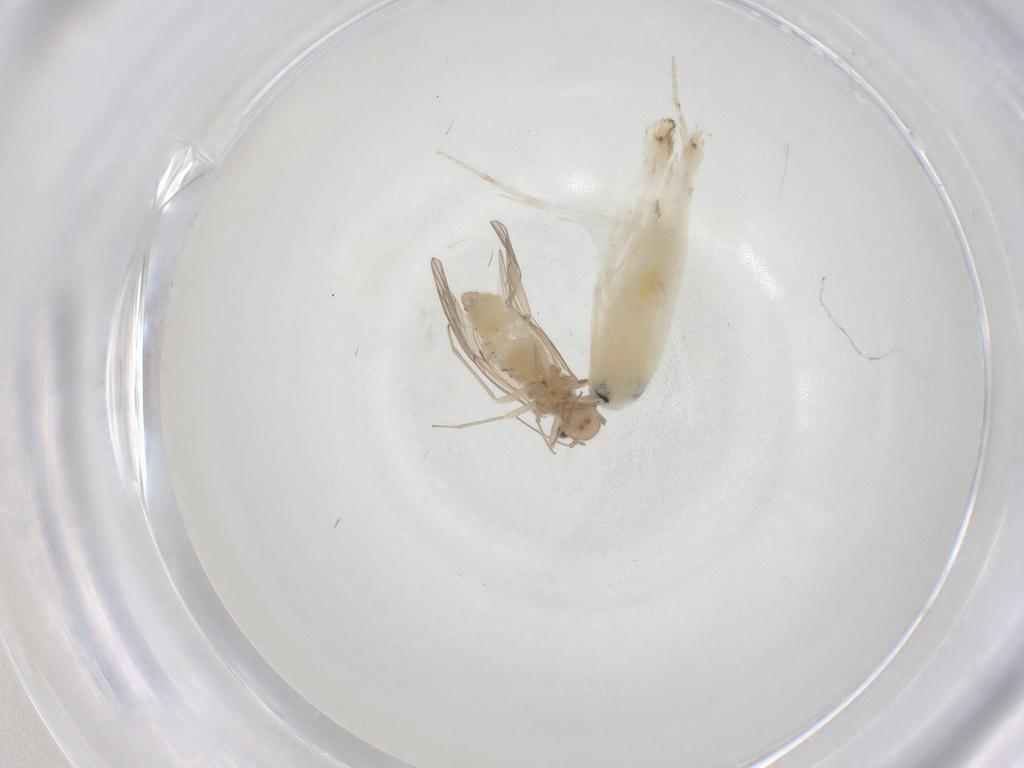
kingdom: Animalia
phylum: Arthropoda
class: Insecta
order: Psocodea
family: Lachesillidae
